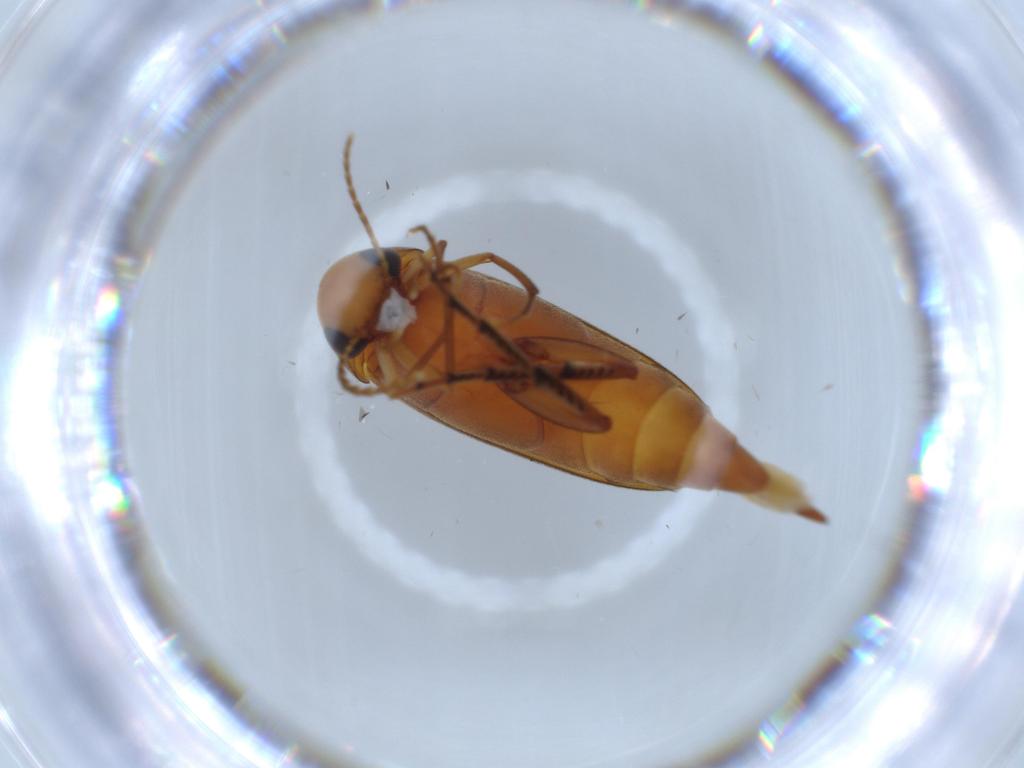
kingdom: Animalia
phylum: Arthropoda
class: Insecta
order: Coleoptera
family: Mordellidae
